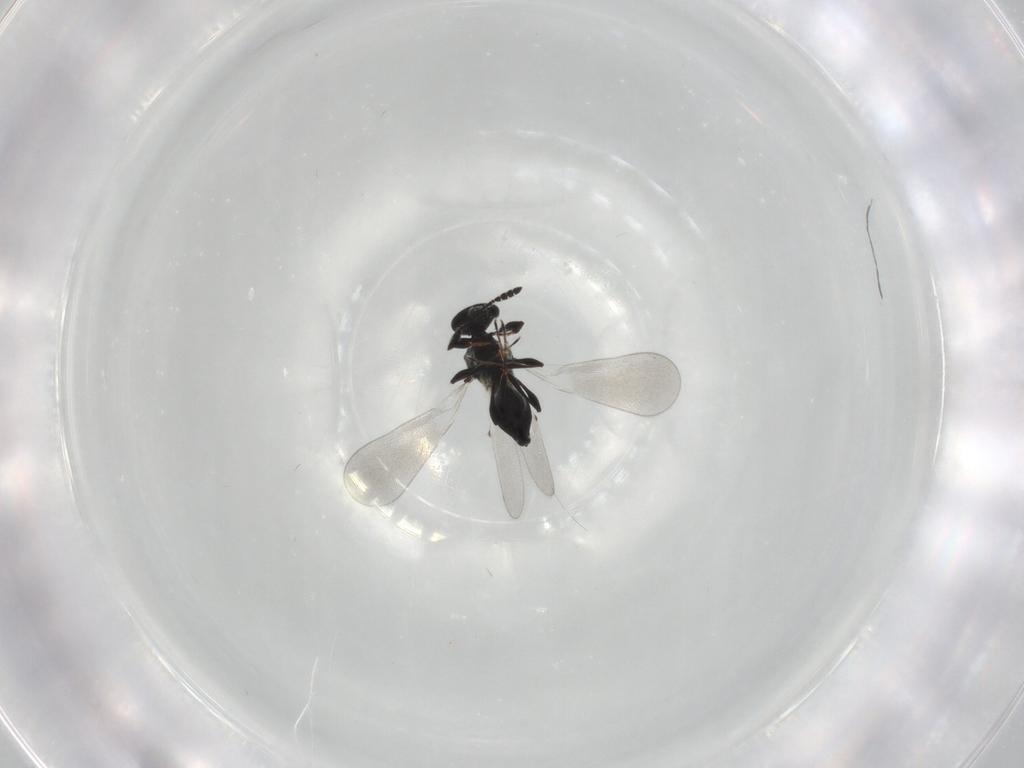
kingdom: Animalia
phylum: Arthropoda
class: Insecta
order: Hymenoptera
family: Platygastridae
